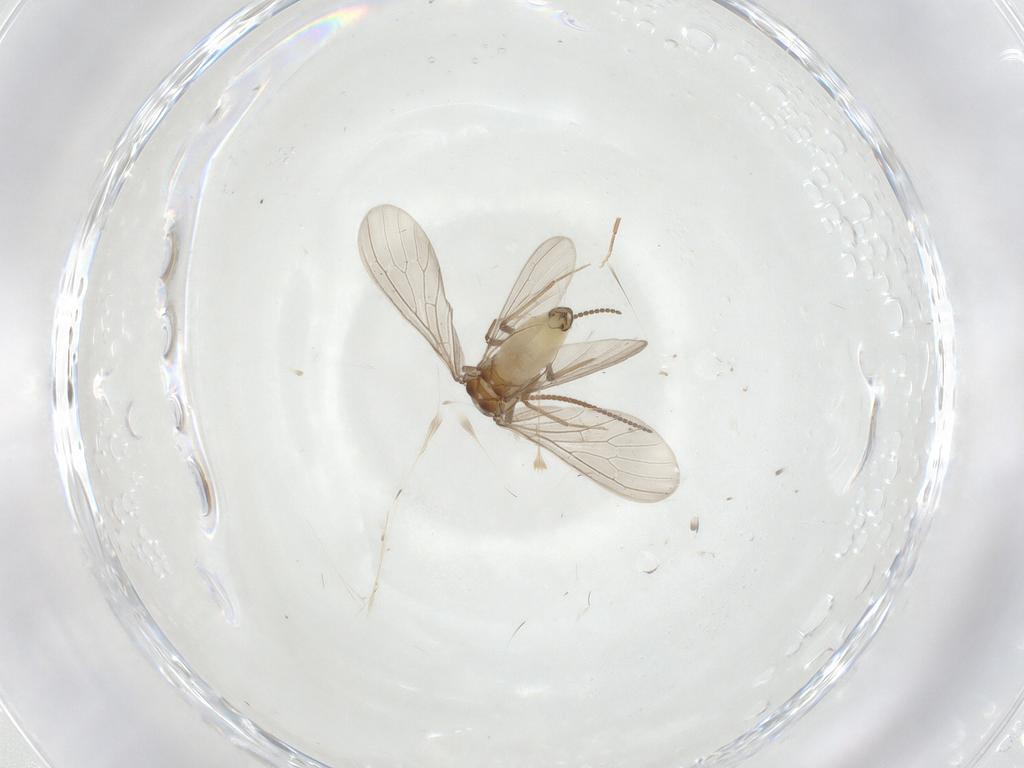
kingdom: Animalia
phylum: Arthropoda
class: Insecta
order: Neuroptera
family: Coniopterygidae
